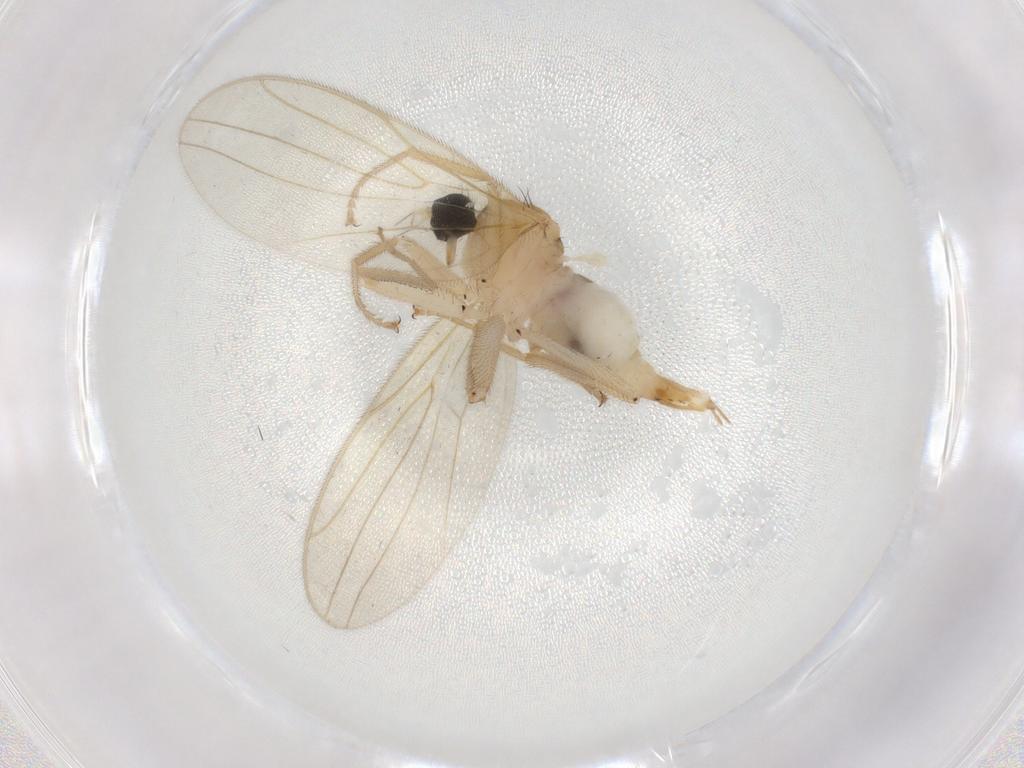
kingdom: Animalia
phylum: Arthropoda
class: Insecta
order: Diptera
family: Hybotidae
